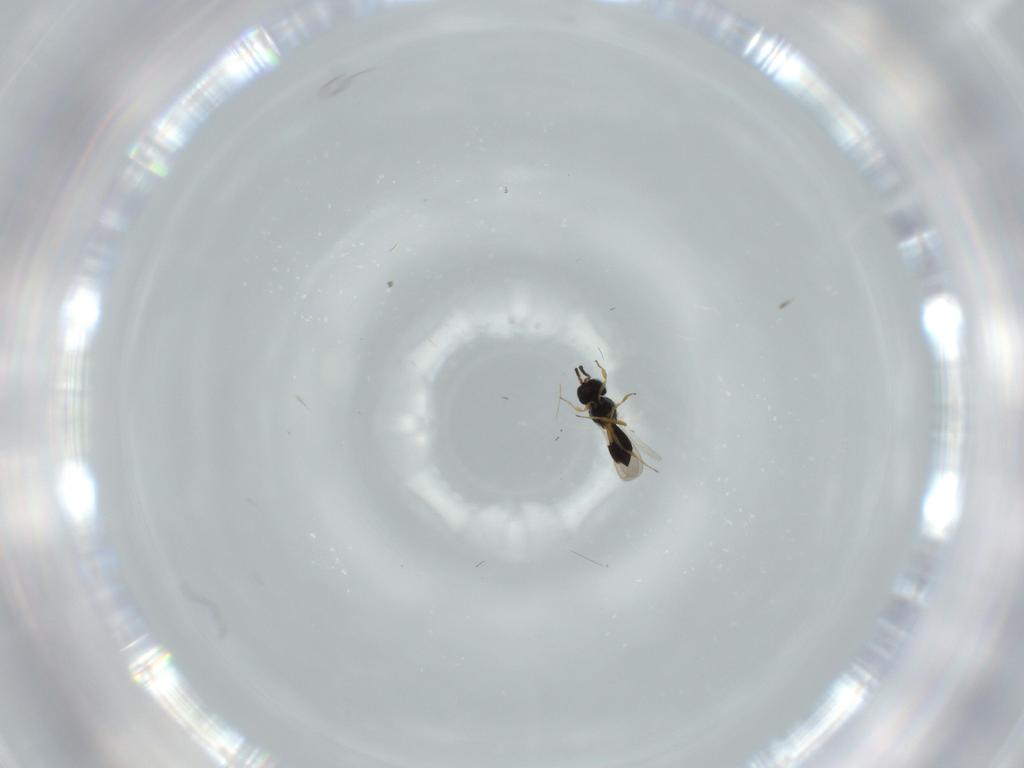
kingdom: Animalia
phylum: Arthropoda
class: Insecta
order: Hymenoptera
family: Scelionidae
